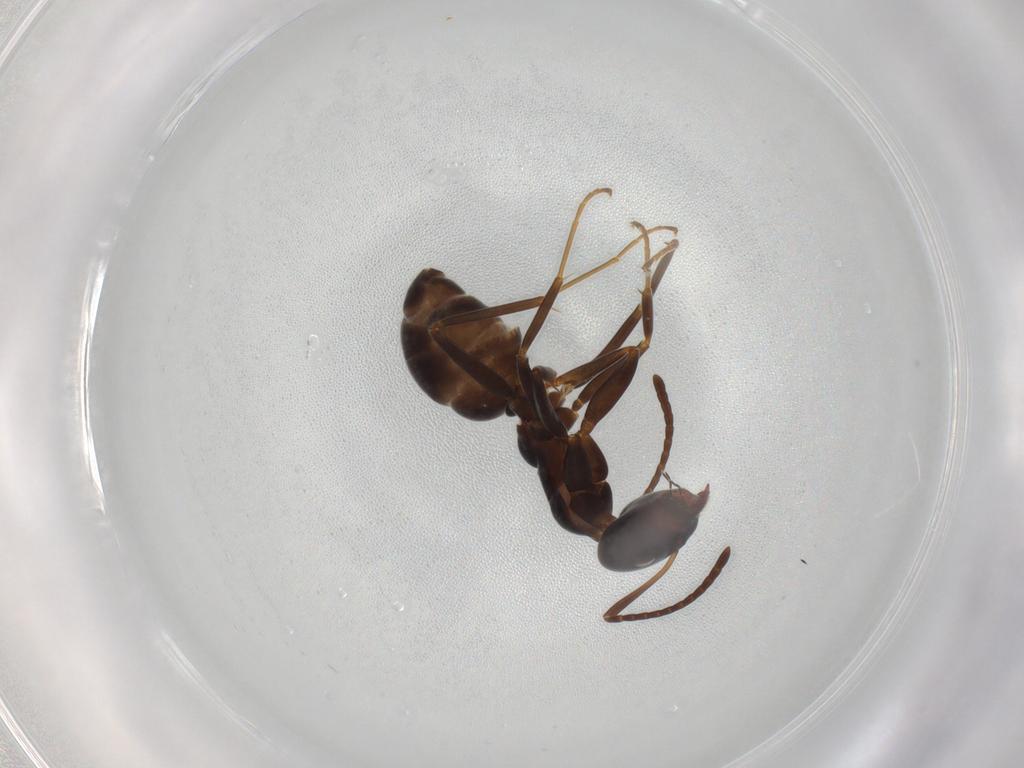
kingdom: Animalia
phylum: Arthropoda
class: Insecta
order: Hymenoptera
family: Formicidae
